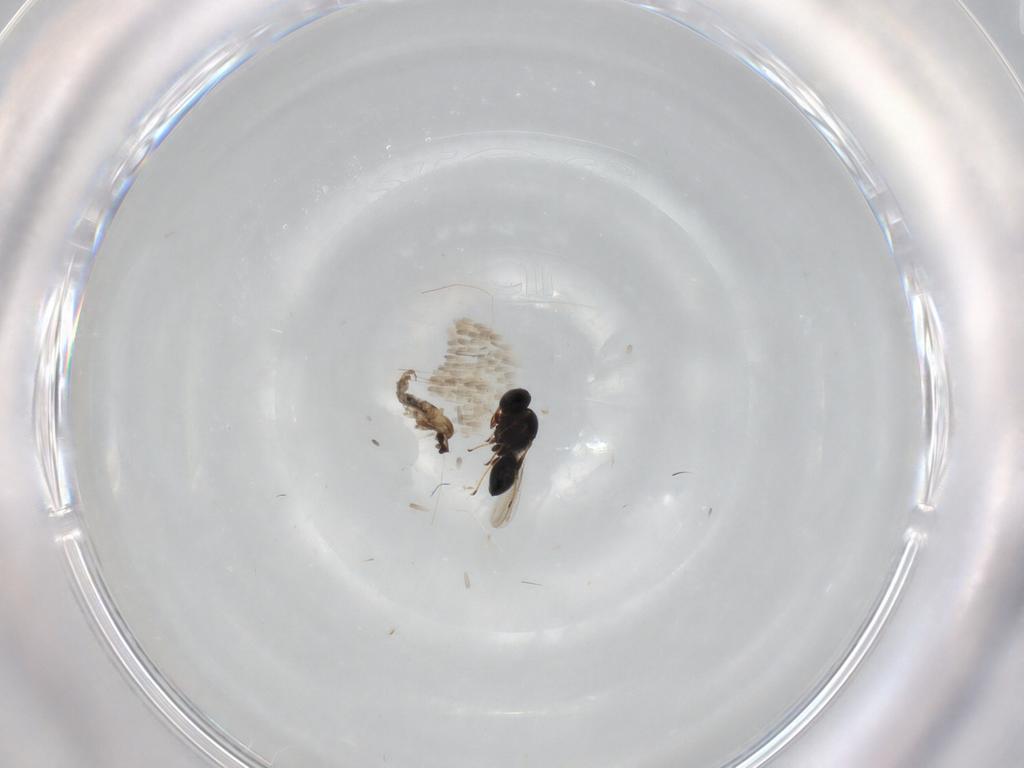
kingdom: Animalia
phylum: Arthropoda
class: Insecta
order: Hymenoptera
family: Platygastridae
